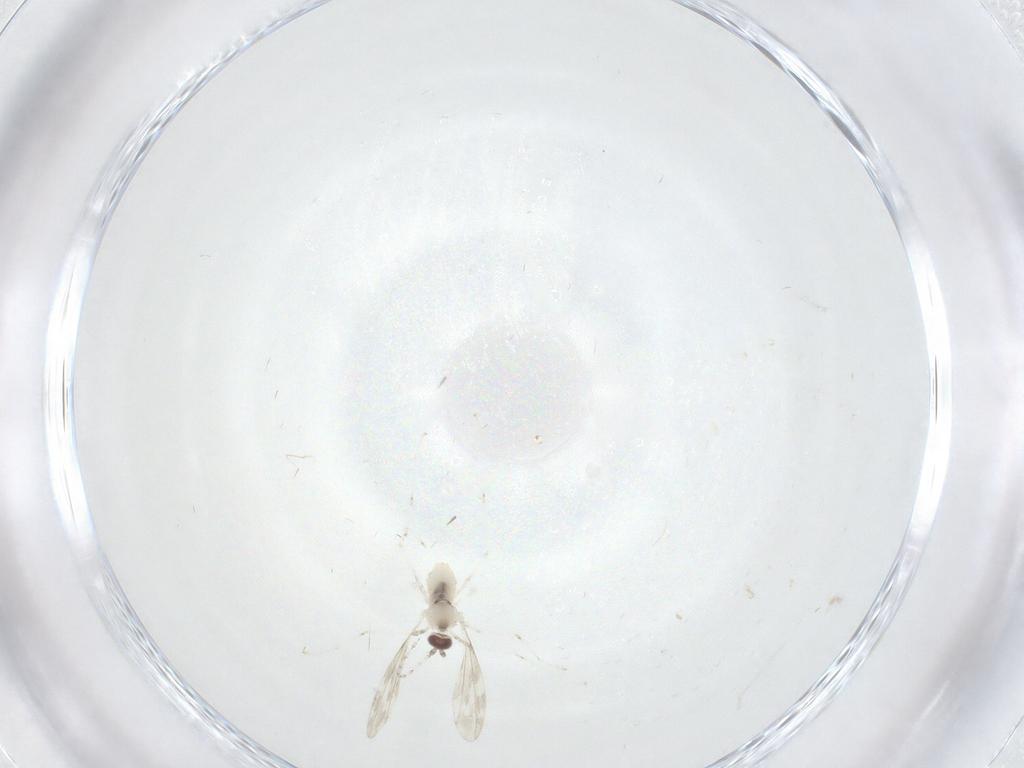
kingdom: Animalia
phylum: Arthropoda
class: Insecta
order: Diptera
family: Cecidomyiidae
